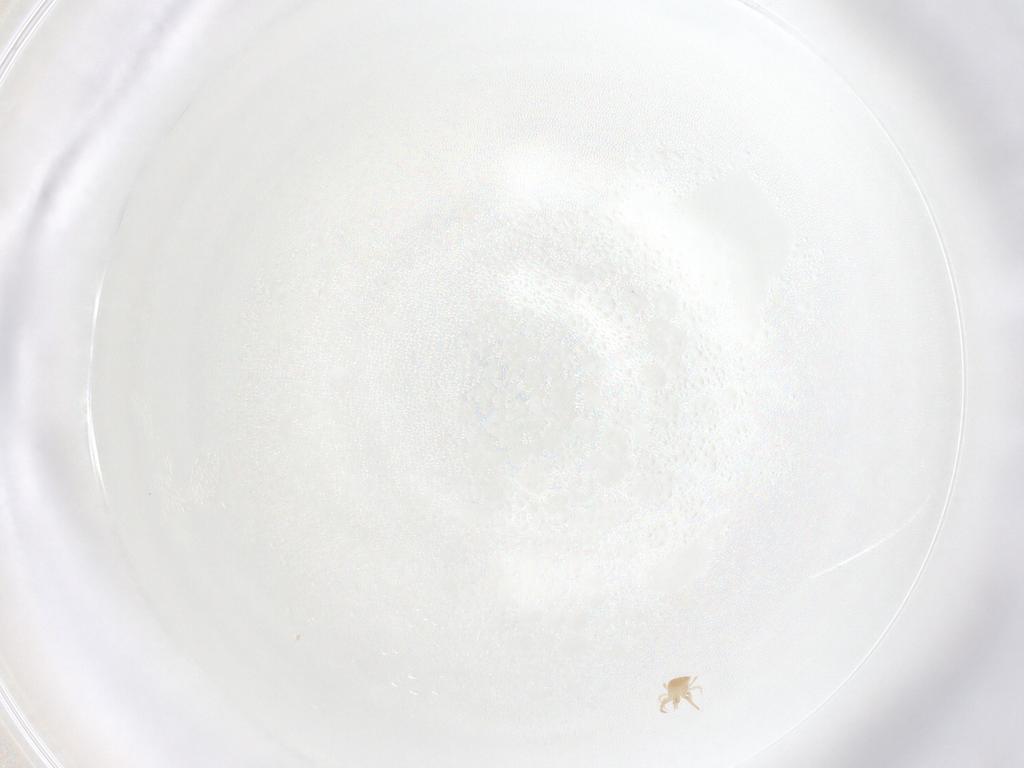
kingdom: Animalia
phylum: Arthropoda
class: Arachnida
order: Mesostigmata
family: Phytoseiidae
